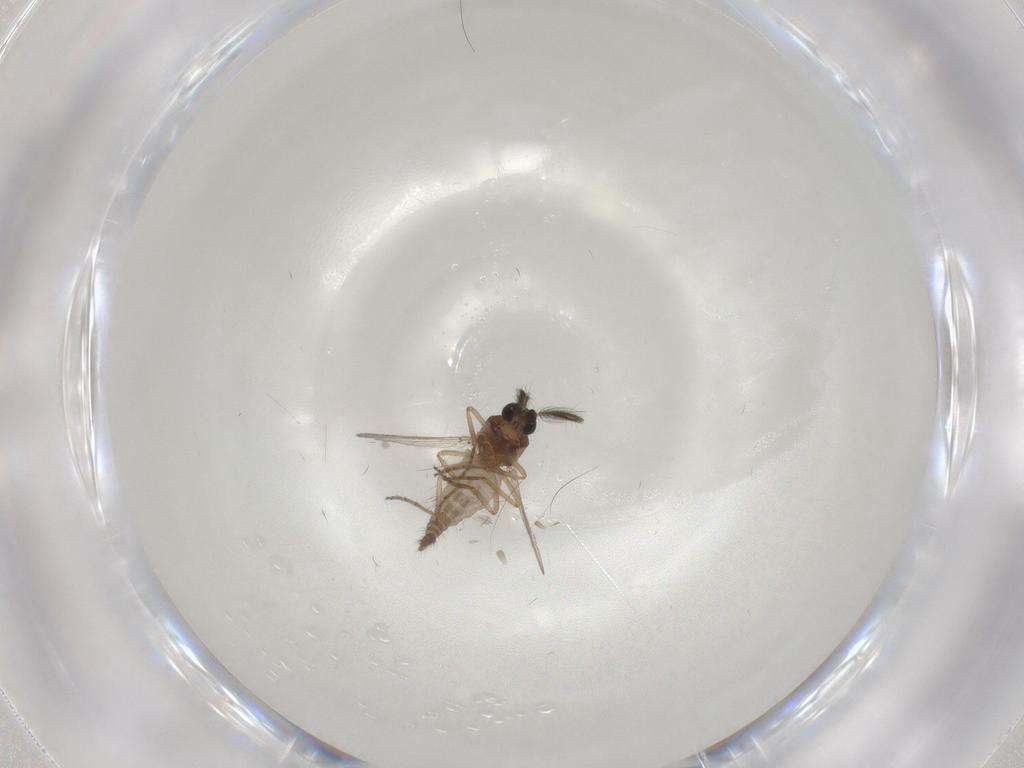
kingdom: Animalia
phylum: Arthropoda
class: Insecta
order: Diptera
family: Ceratopogonidae
